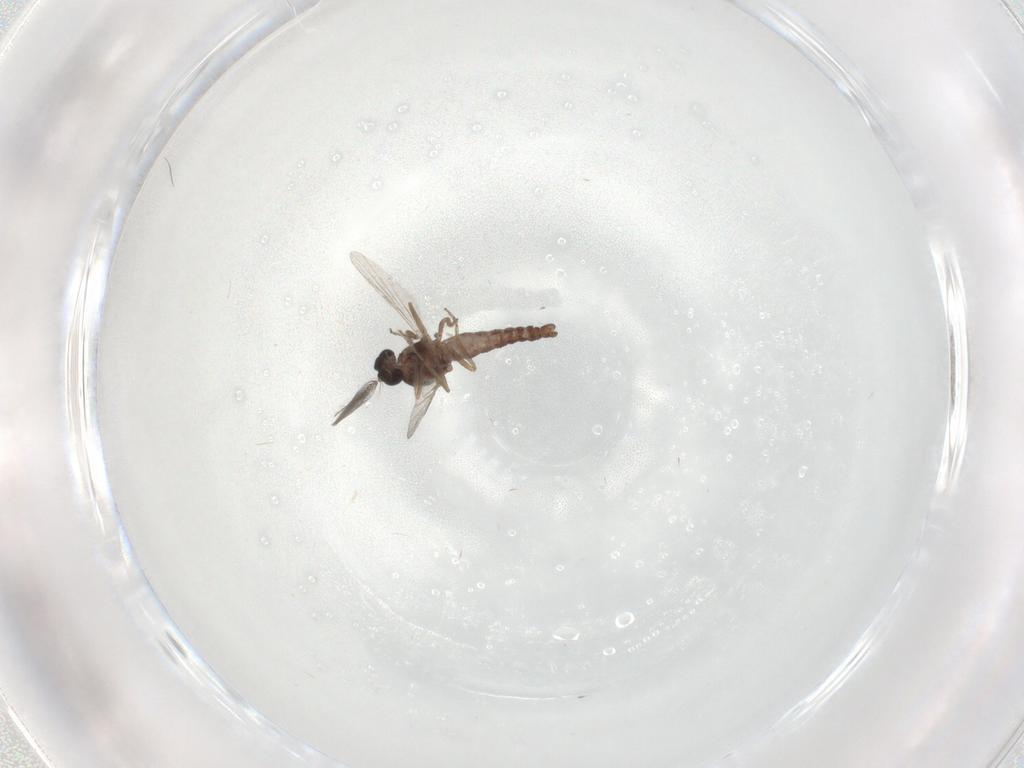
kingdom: Animalia
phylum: Arthropoda
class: Insecta
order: Diptera
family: Ceratopogonidae
